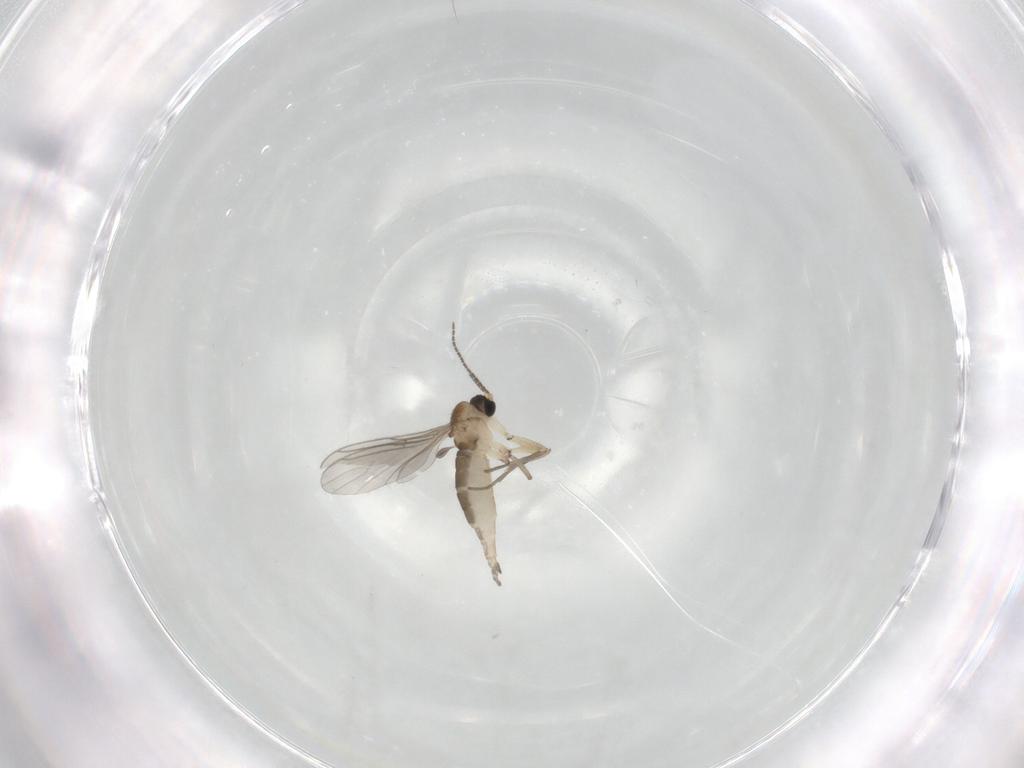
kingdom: Animalia
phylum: Arthropoda
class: Insecta
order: Diptera
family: Sciaridae
